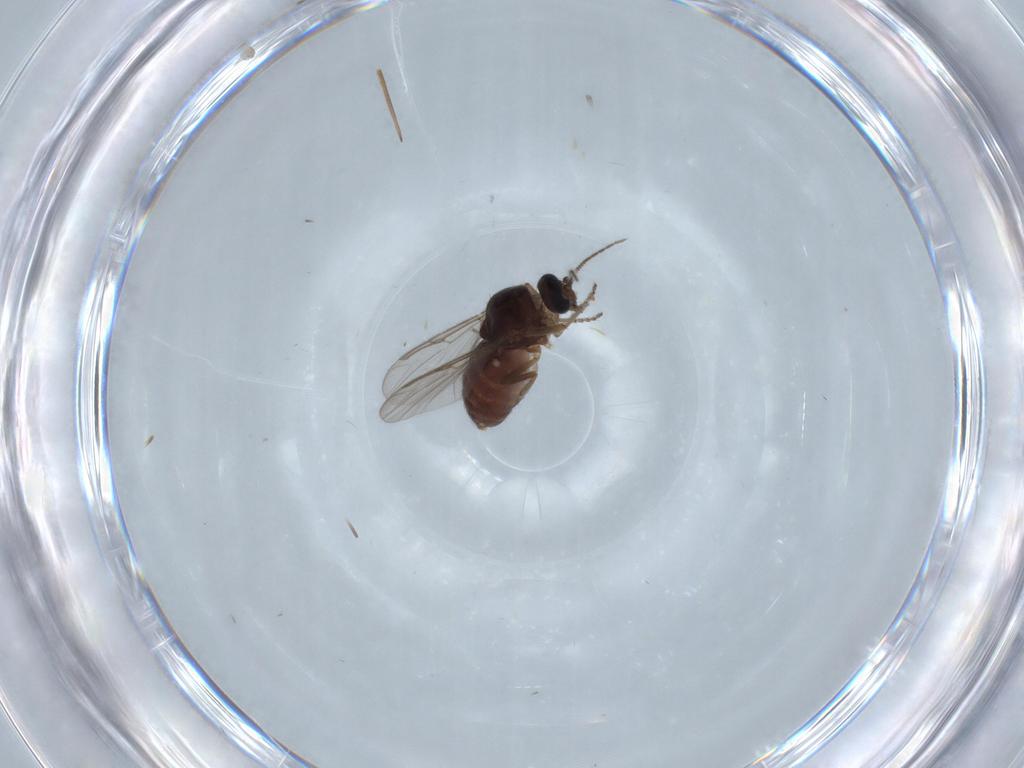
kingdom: Animalia
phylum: Arthropoda
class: Insecta
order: Diptera
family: Ceratopogonidae
